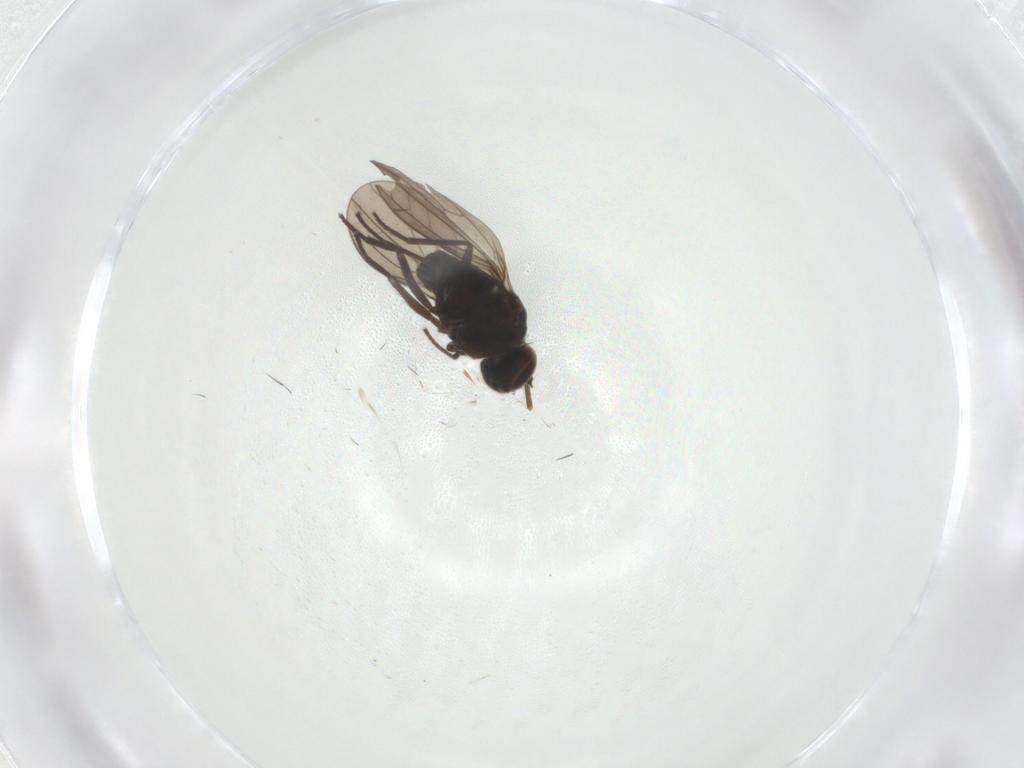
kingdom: Animalia
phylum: Arthropoda
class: Insecta
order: Diptera
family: Dolichopodidae
